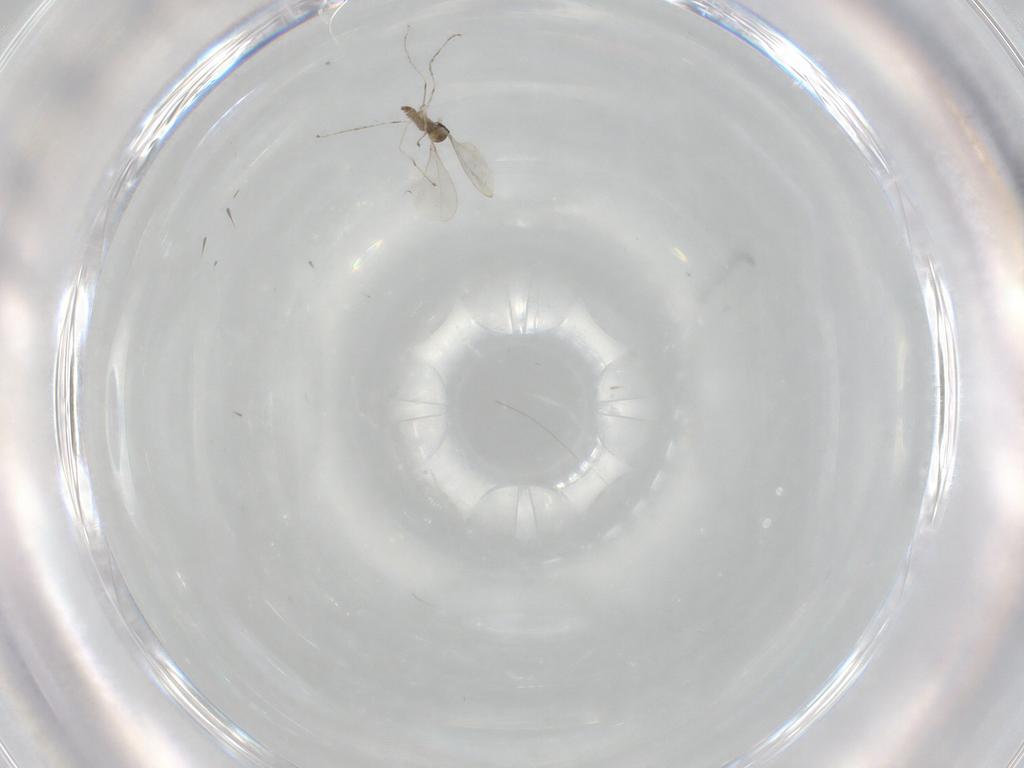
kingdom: Animalia
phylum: Arthropoda
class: Insecta
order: Diptera
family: Cecidomyiidae
